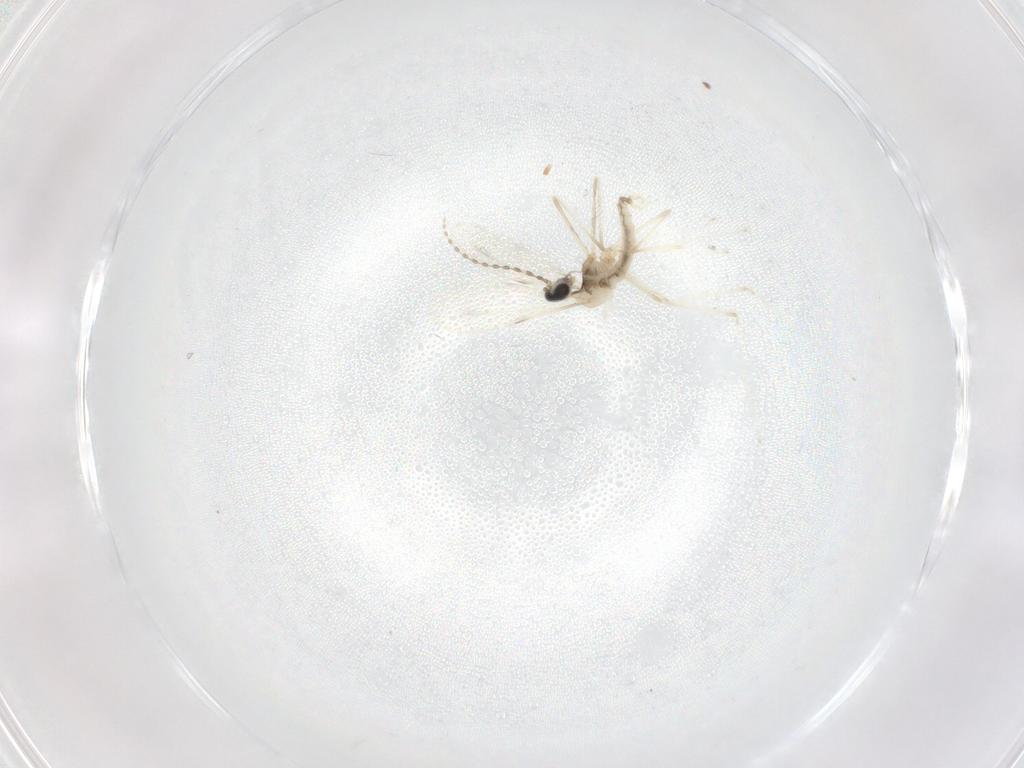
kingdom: Animalia
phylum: Arthropoda
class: Insecta
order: Diptera
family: Cecidomyiidae
